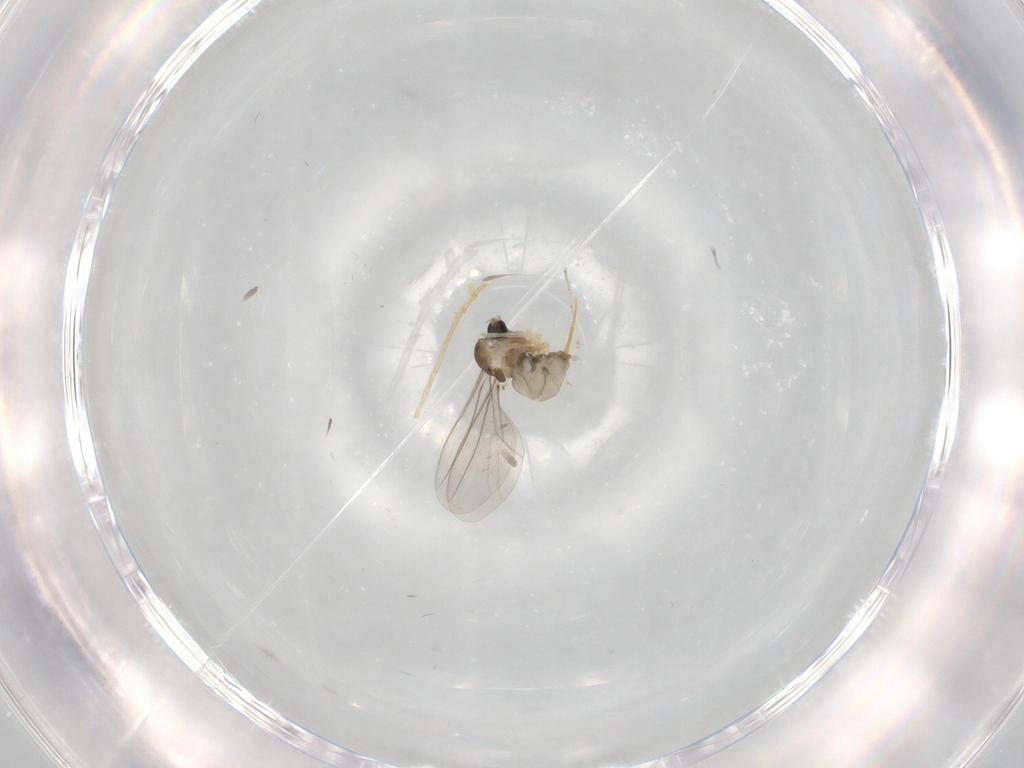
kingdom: Animalia
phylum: Arthropoda
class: Insecta
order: Diptera
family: Cecidomyiidae
